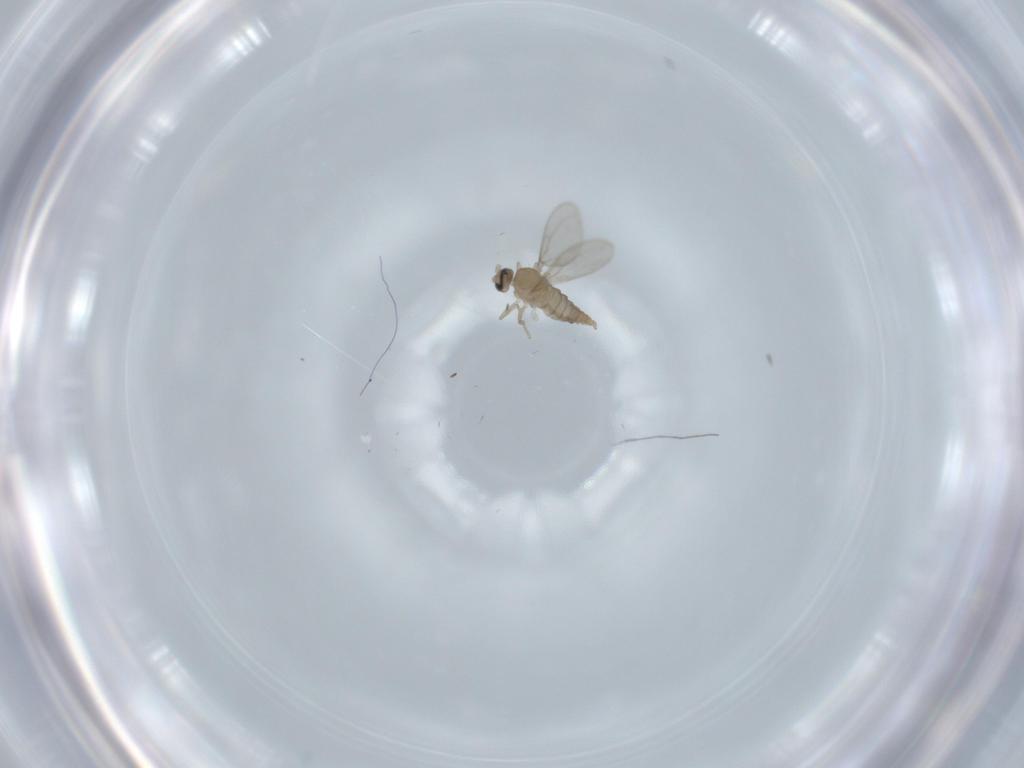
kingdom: Animalia
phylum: Arthropoda
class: Insecta
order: Diptera
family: Cecidomyiidae
